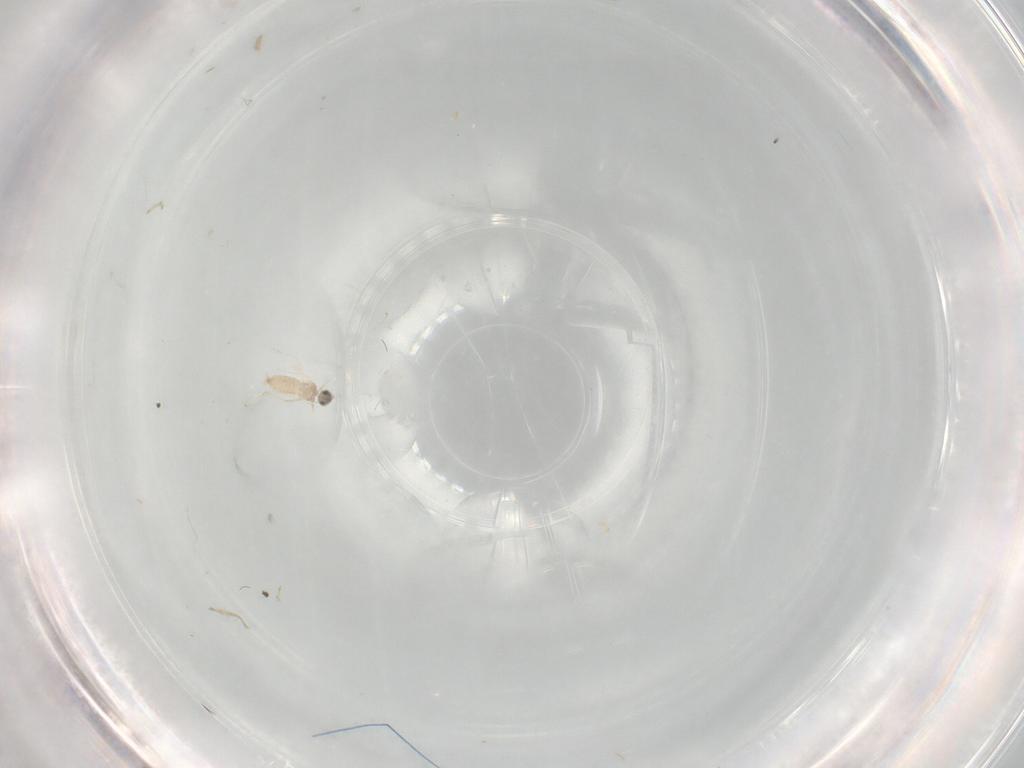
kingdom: Animalia
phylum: Arthropoda
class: Insecta
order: Diptera
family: Cecidomyiidae
